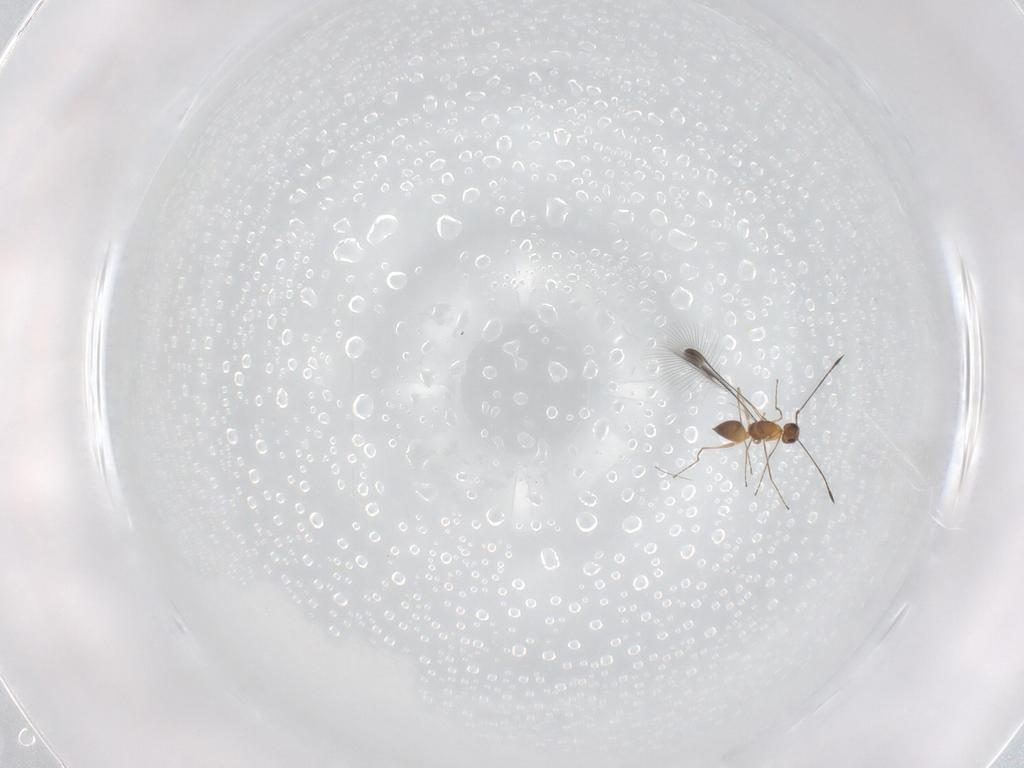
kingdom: Animalia
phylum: Arthropoda
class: Insecta
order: Hymenoptera
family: Mymaridae
